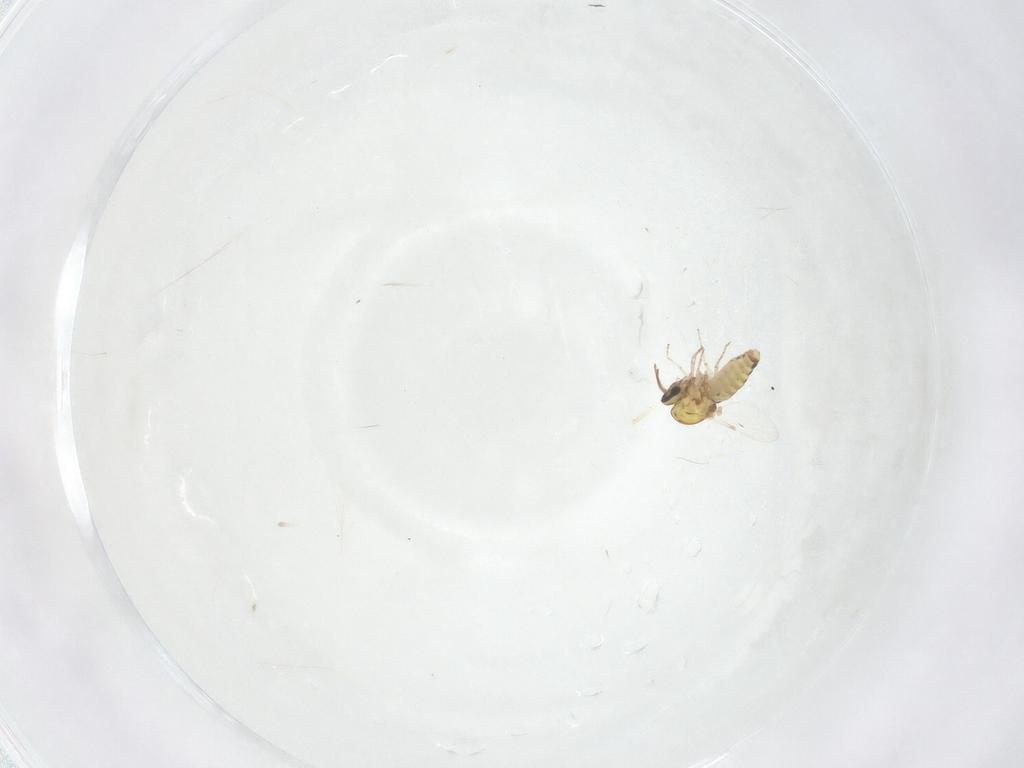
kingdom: Animalia
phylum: Arthropoda
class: Insecta
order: Diptera
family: Ceratopogonidae
